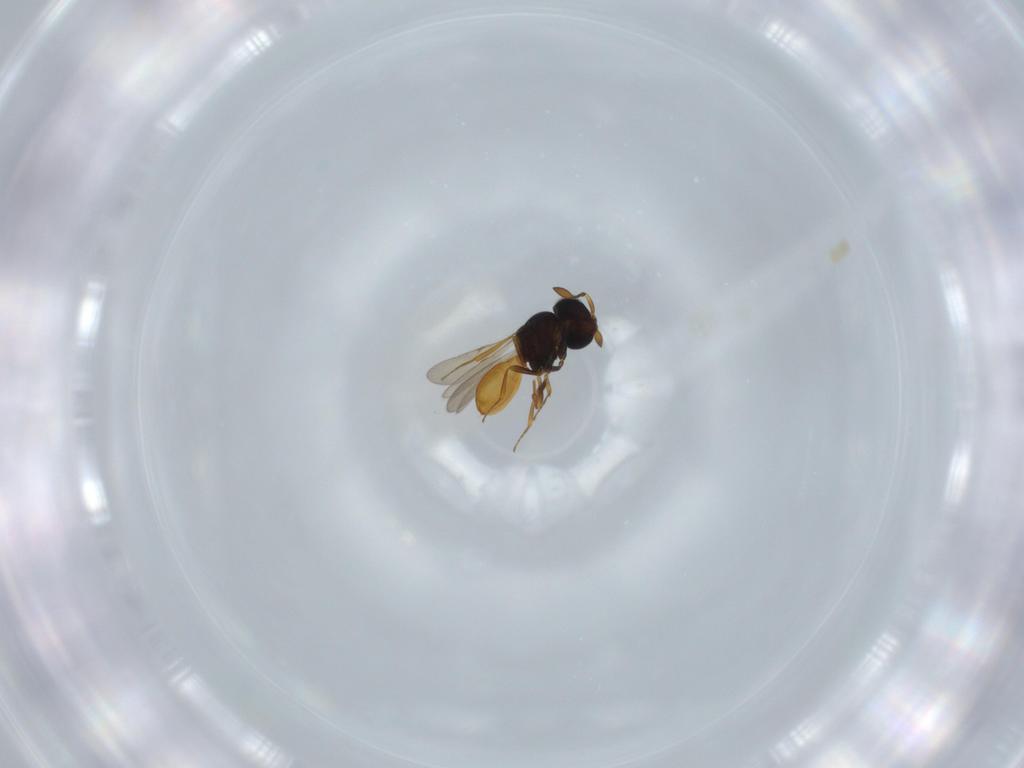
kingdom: Animalia
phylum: Arthropoda
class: Insecta
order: Hymenoptera
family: Scelionidae
